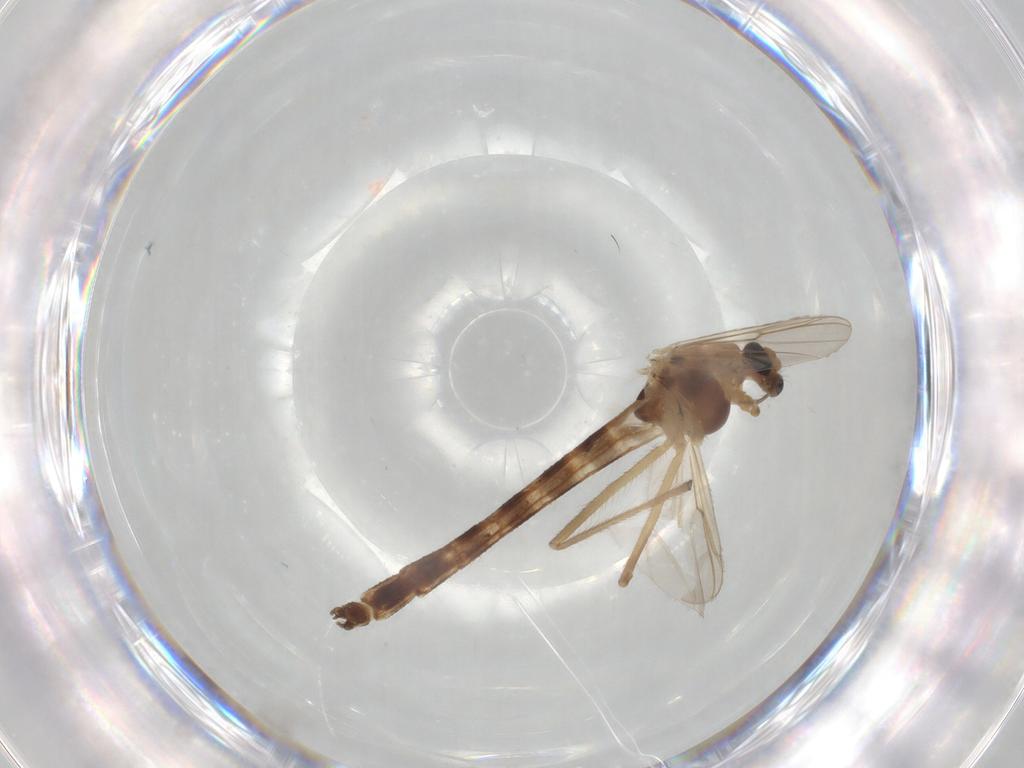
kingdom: Animalia
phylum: Arthropoda
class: Insecta
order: Diptera
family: Chironomidae
